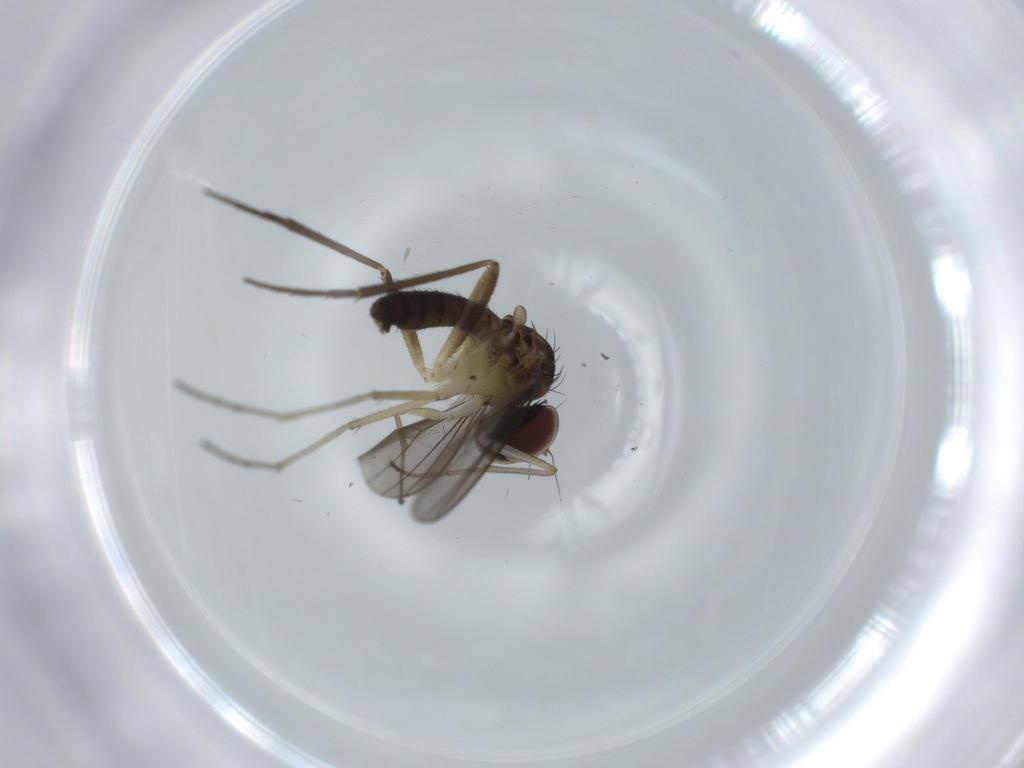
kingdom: Animalia
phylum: Arthropoda
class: Insecta
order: Diptera
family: Dolichopodidae
